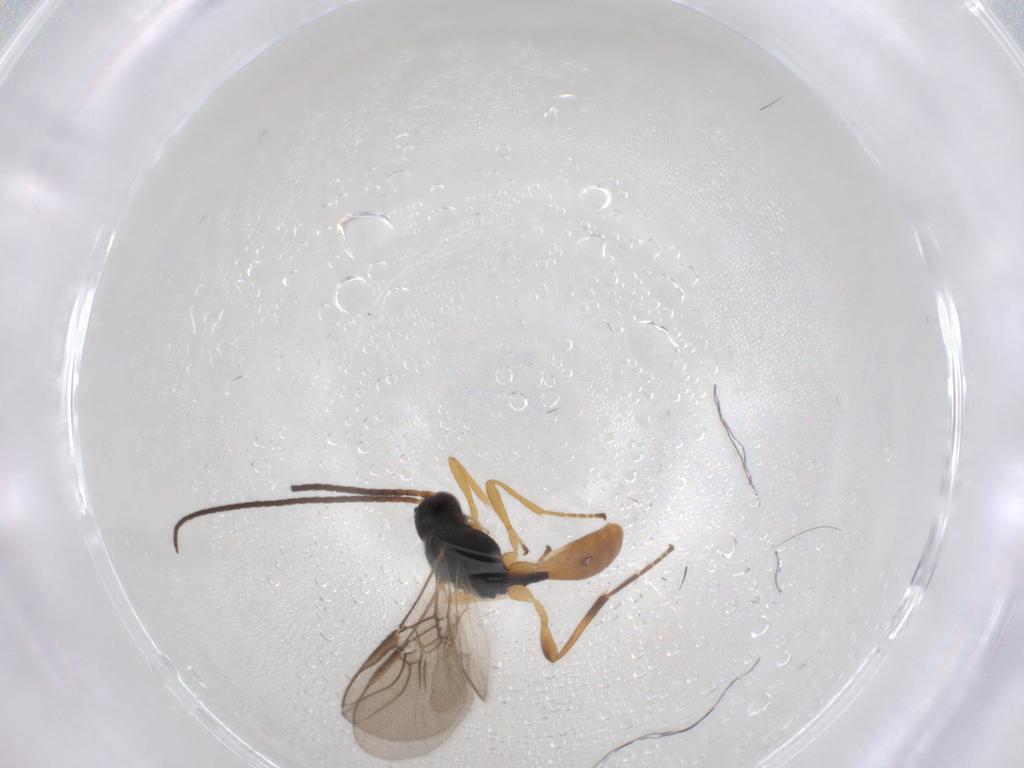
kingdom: Animalia
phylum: Arthropoda
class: Insecta
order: Hymenoptera
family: Braconidae
